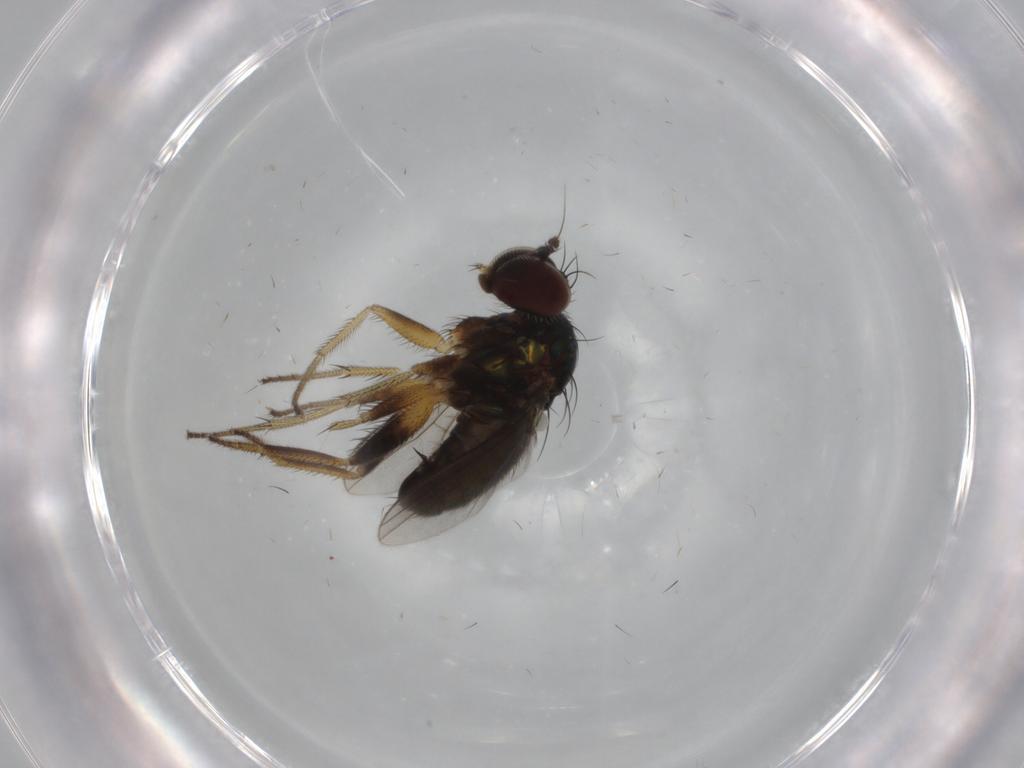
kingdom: Animalia
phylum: Arthropoda
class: Insecta
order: Diptera
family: Dolichopodidae
